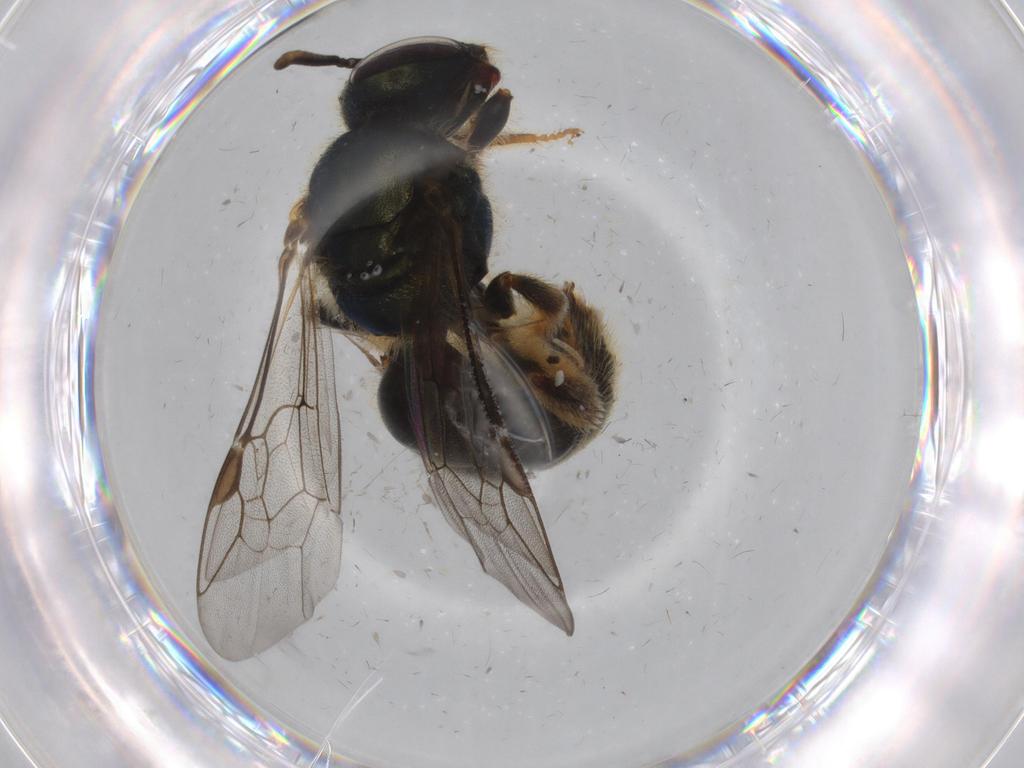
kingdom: Animalia
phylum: Arthropoda
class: Insecta
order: Hymenoptera
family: Halictidae
